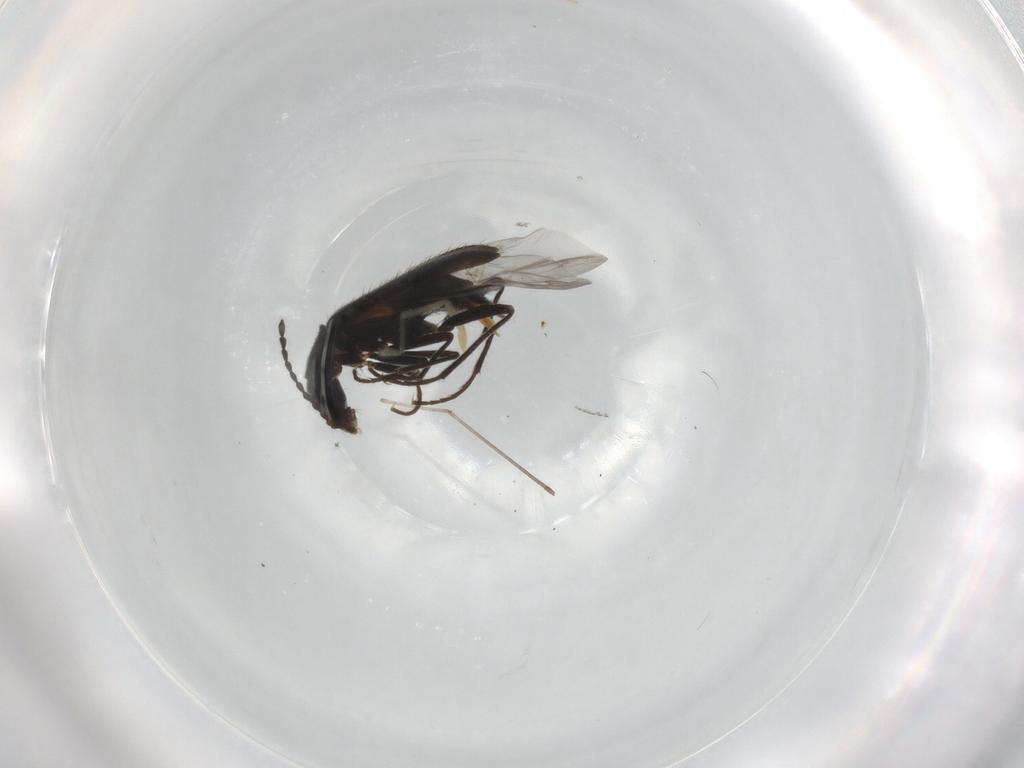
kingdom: Animalia
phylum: Arthropoda
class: Insecta
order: Coleoptera
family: Melyridae
